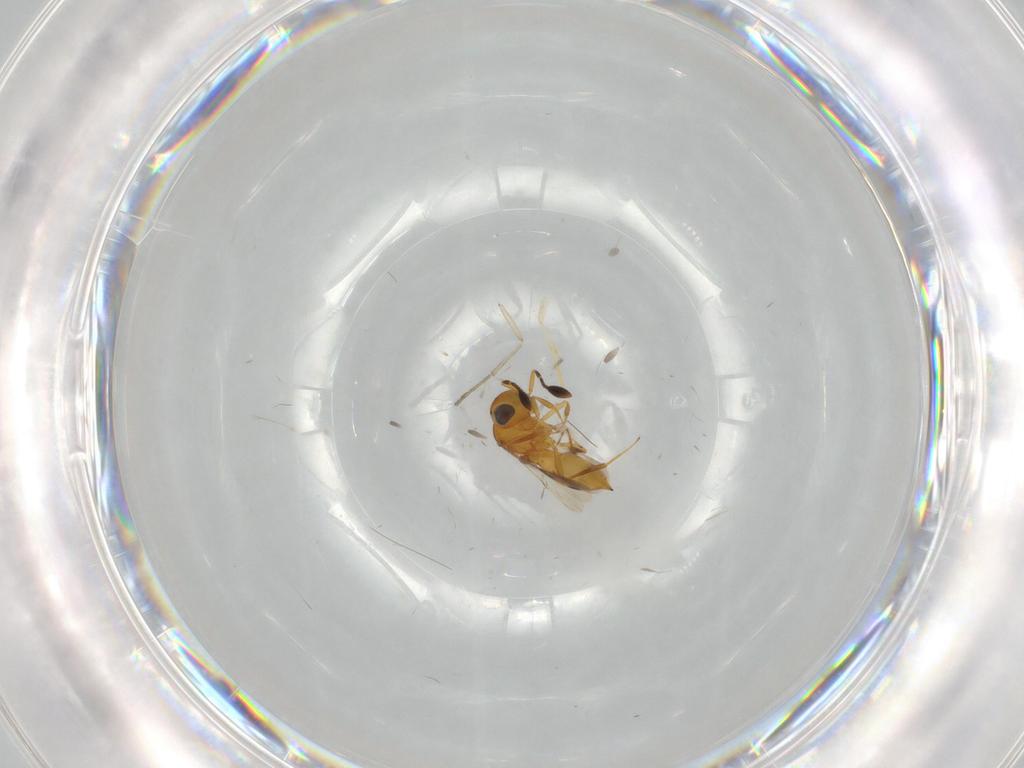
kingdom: Animalia
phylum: Arthropoda
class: Insecta
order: Hymenoptera
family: Scelionidae
